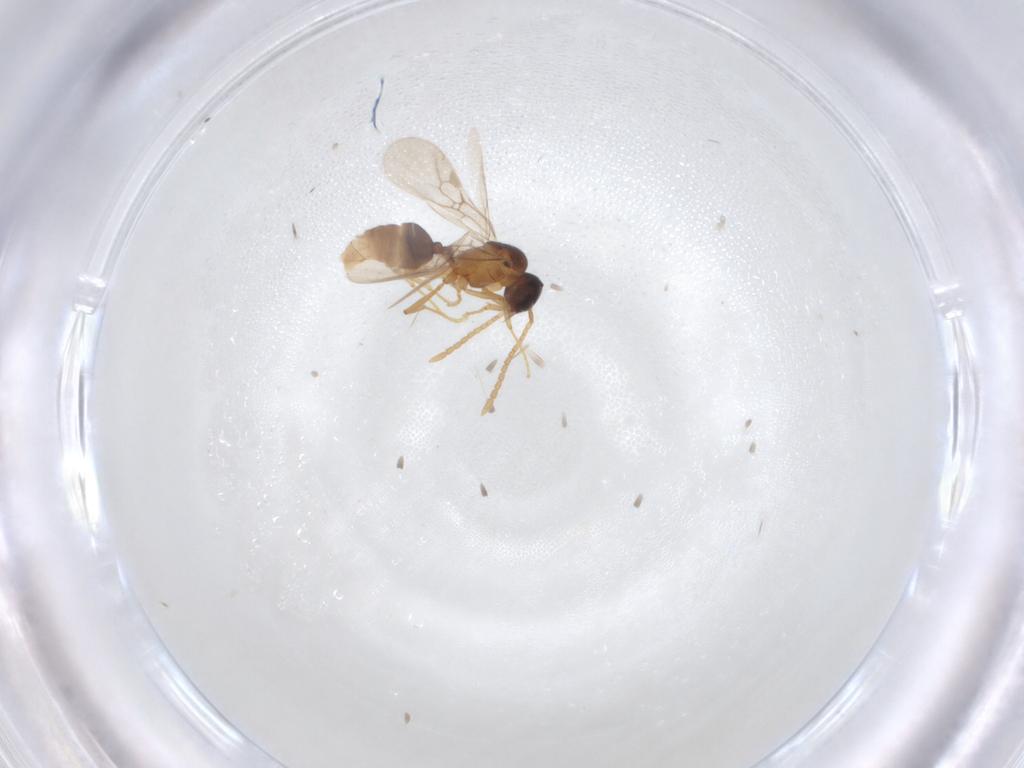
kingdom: Animalia
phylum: Arthropoda
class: Insecta
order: Hymenoptera
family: Formicidae
